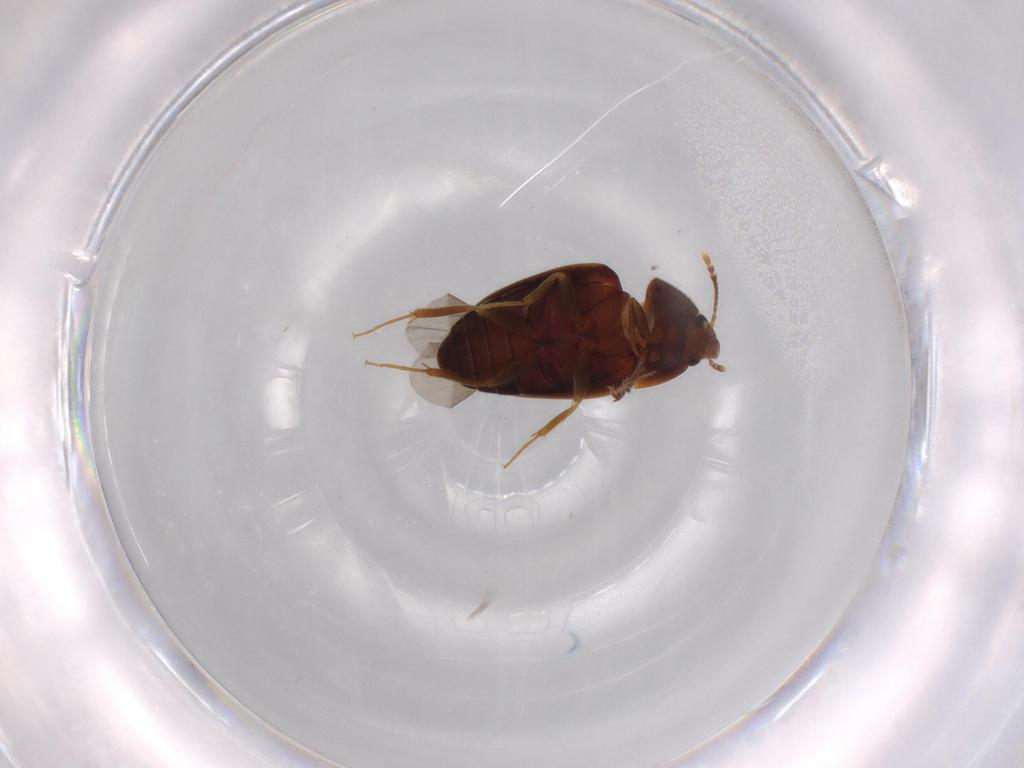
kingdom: Animalia
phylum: Arthropoda
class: Insecta
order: Coleoptera
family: Mycetophagidae
